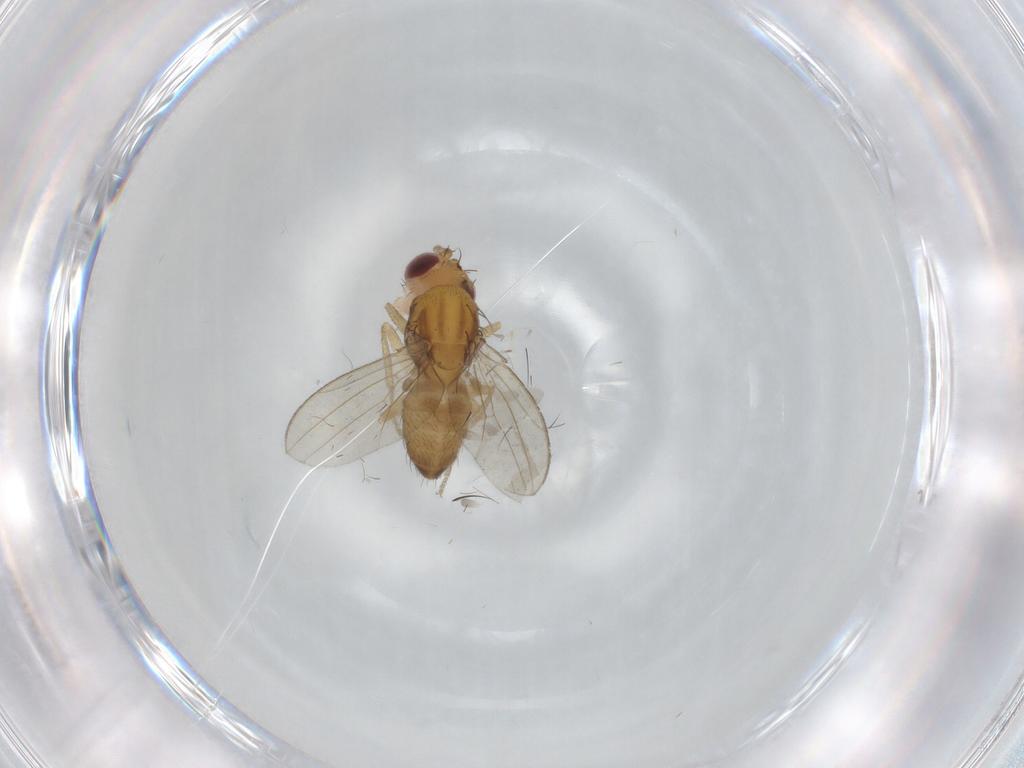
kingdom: Animalia
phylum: Arthropoda
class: Insecta
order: Diptera
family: Drosophilidae
